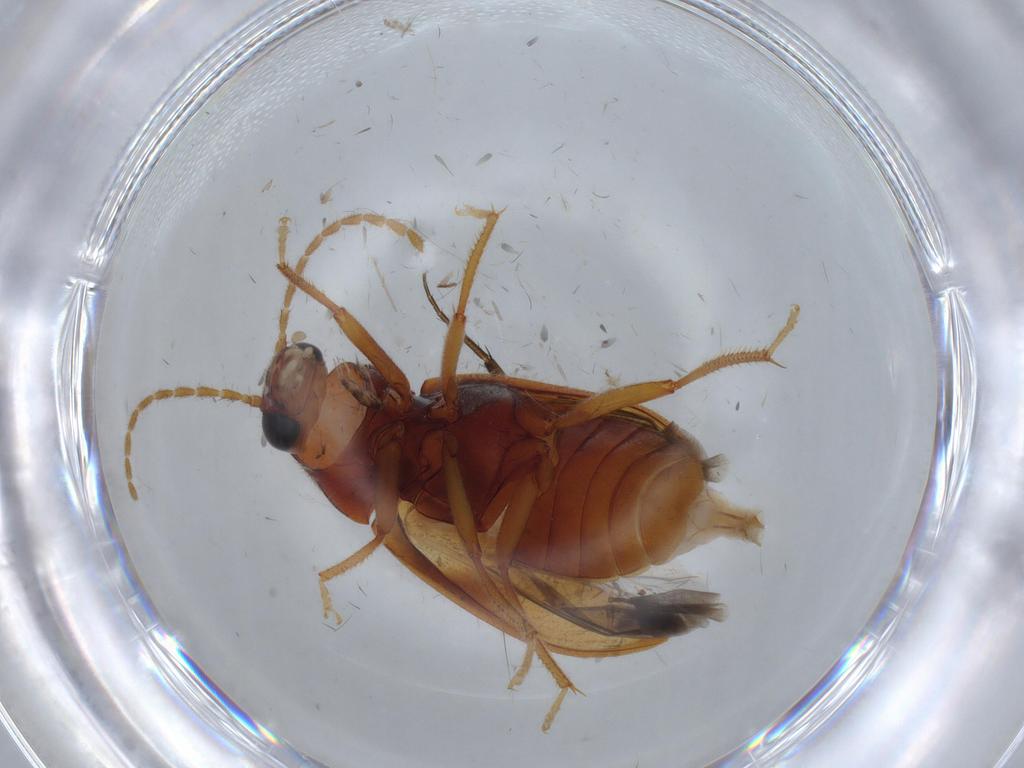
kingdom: Animalia
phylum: Arthropoda
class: Insecta
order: Coleoptera
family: Ptilodactylidae
